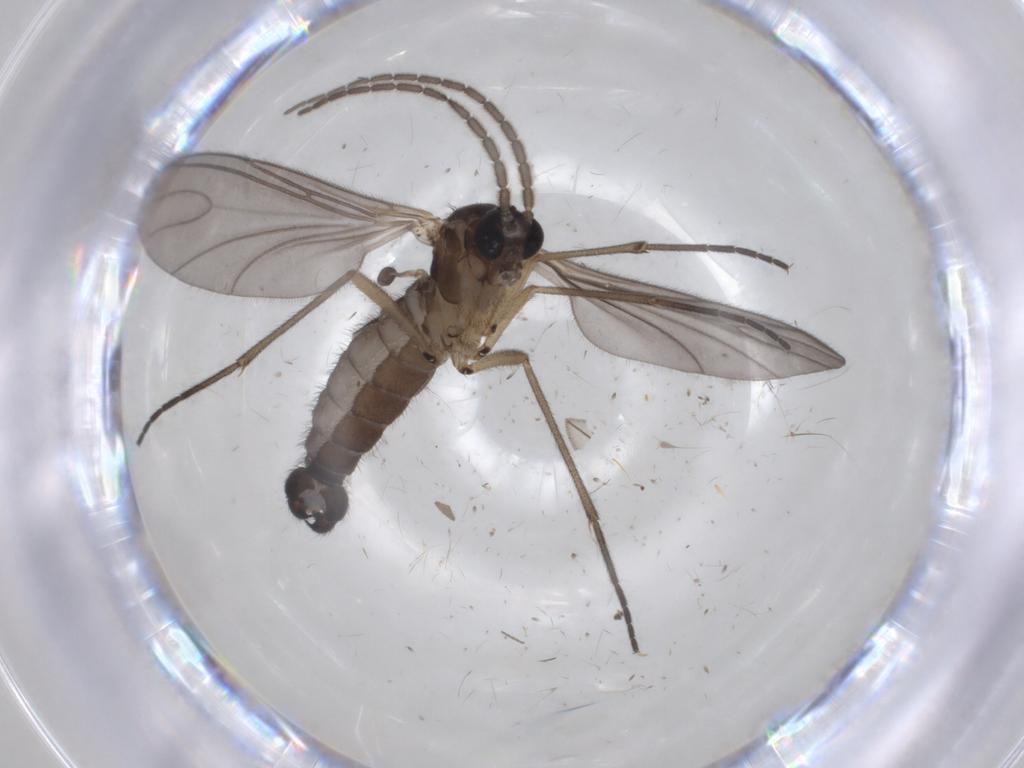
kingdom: Animalia
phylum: Arthropoda
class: Insecta
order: Diptera
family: Sciaridae
